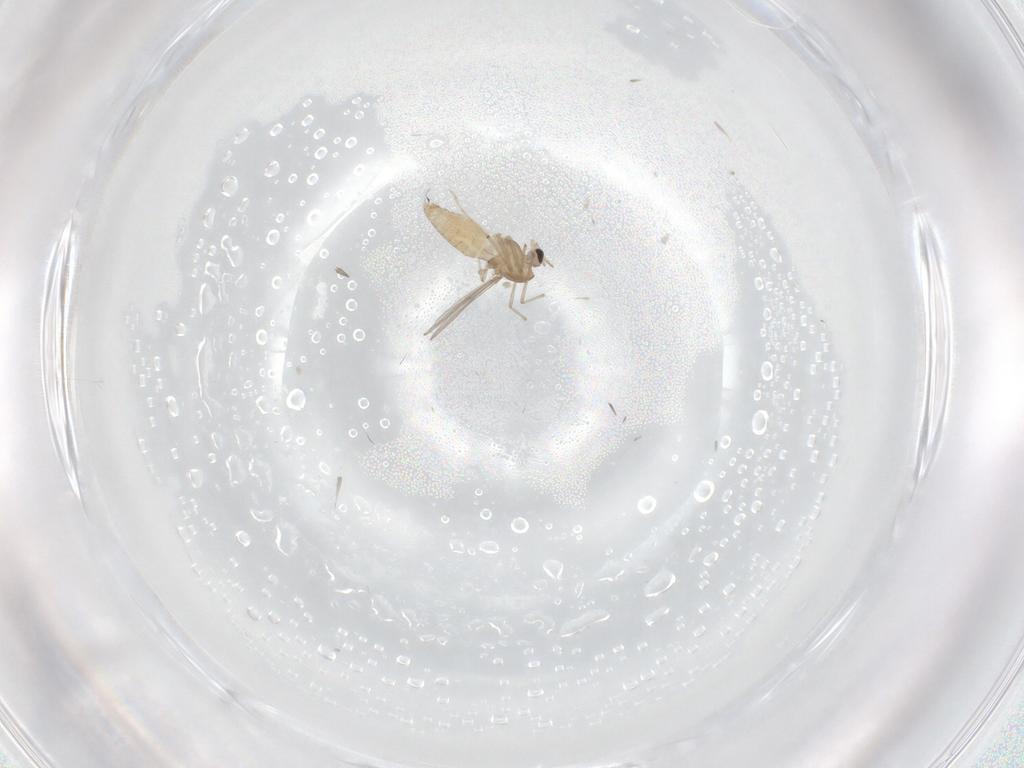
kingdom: Animalia
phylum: Arthropoda
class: Insecta
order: Diptera
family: Chironomidae
